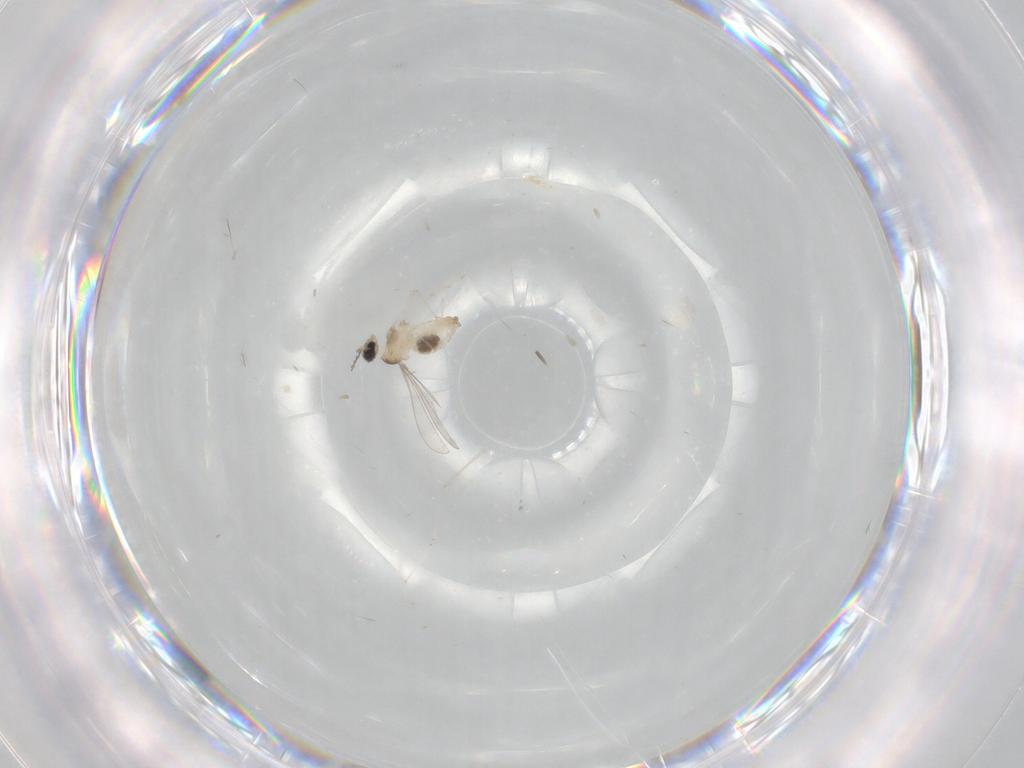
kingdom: Animalia
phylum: Arthropoda
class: Insecta
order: Diptera
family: Cecidomyiidae
